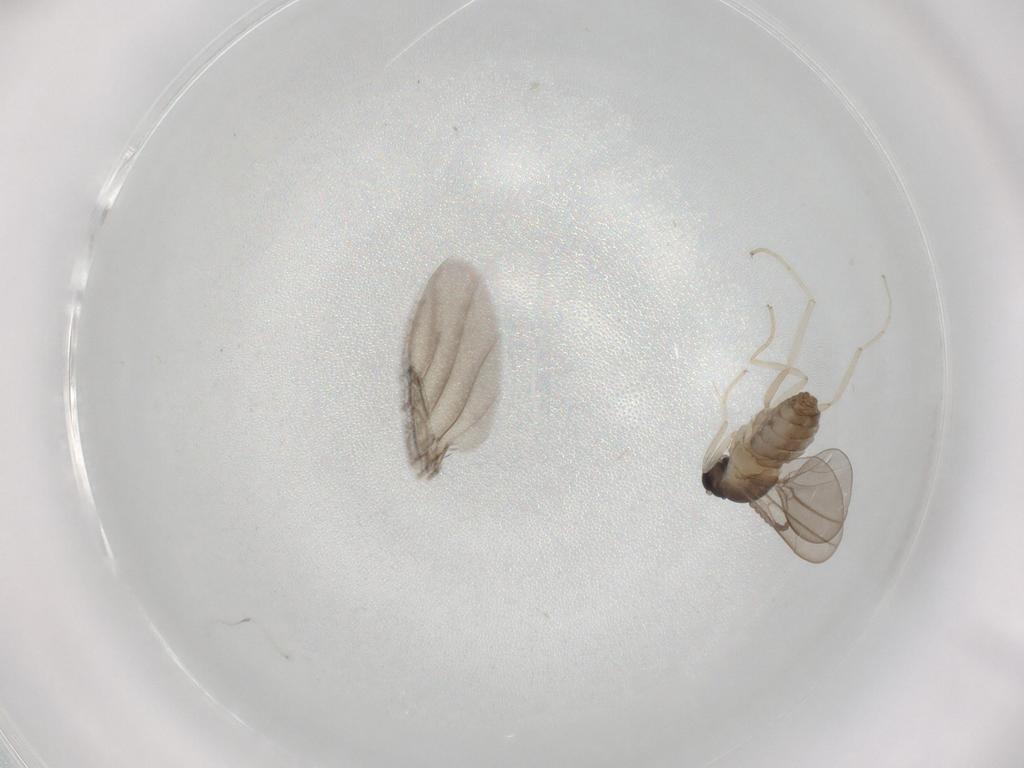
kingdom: Animalia
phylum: Arthropoda
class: Insecta
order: Diptera
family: Cecidomyiidae
